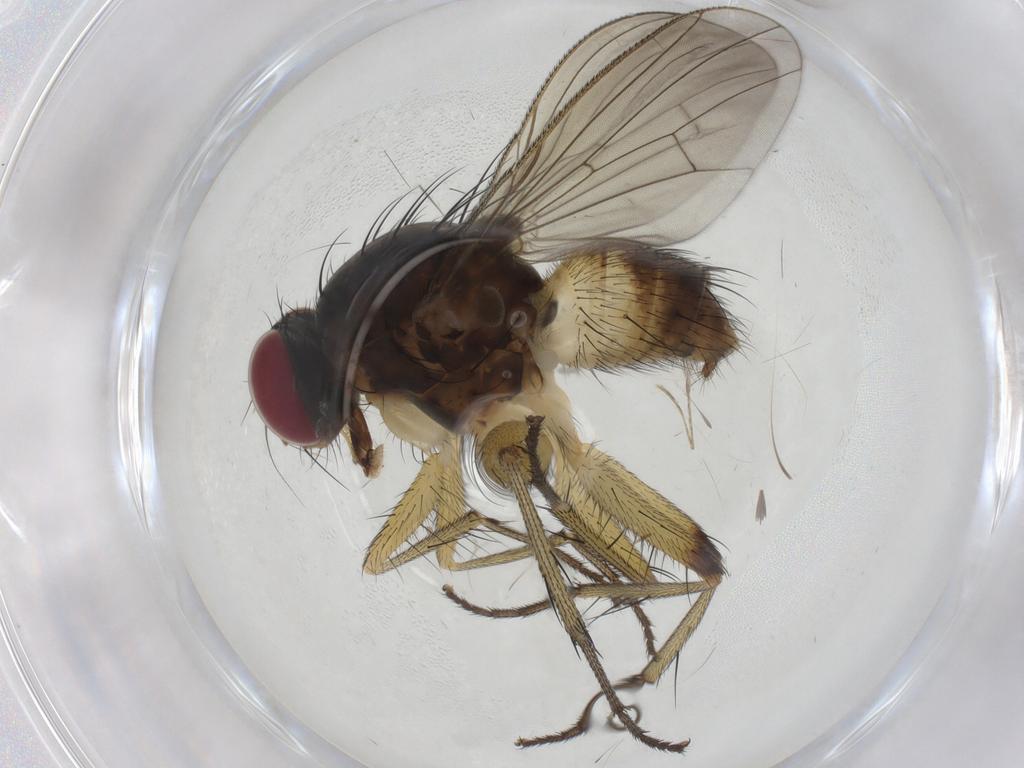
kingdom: Animalia
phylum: Arthropoda
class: Insecta
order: Diptera
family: Muscidae
